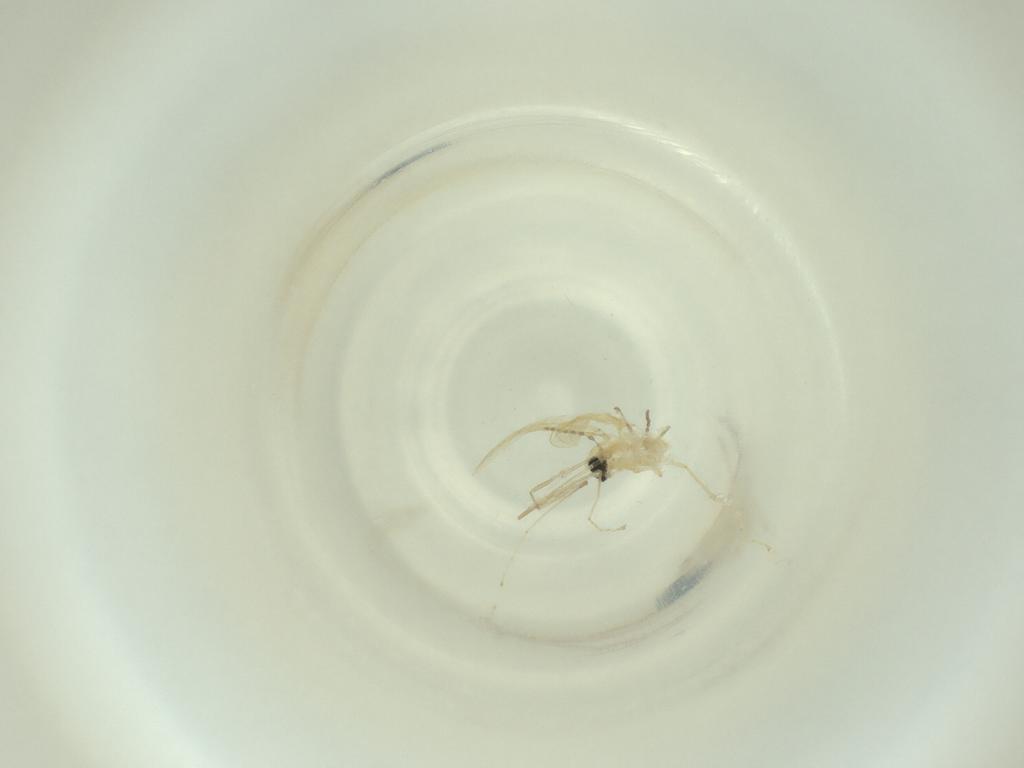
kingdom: Animalia
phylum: Arthropoda
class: Insecta
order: Diptera
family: Cecidomyiidae
